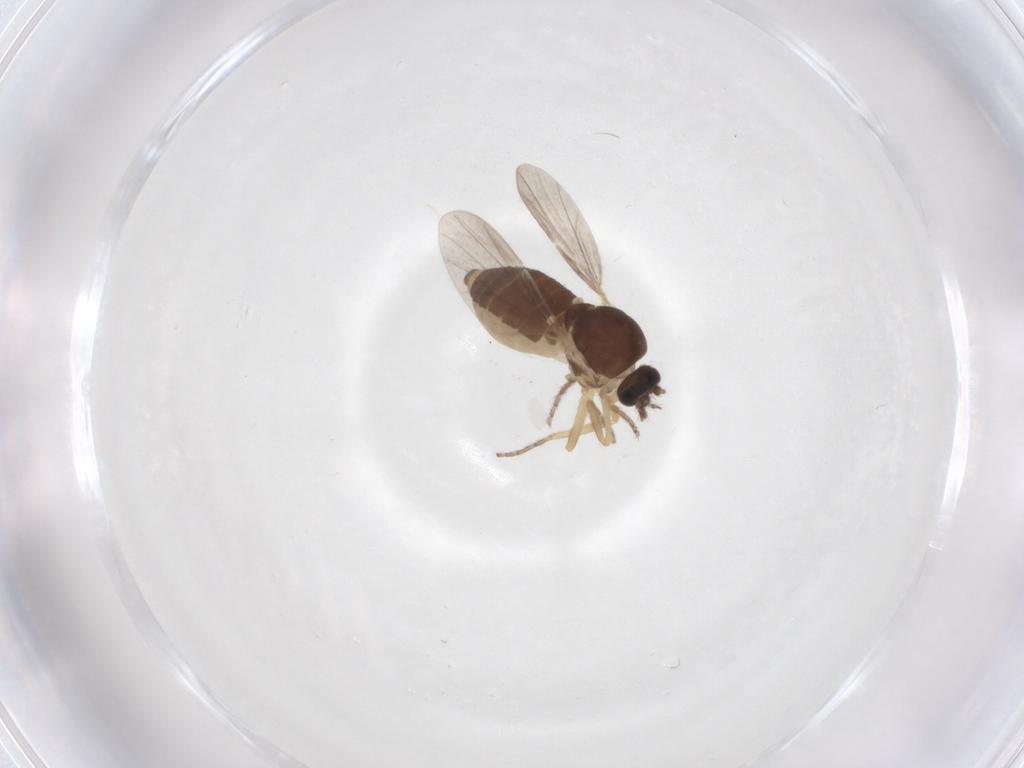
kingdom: Animalia
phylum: Arthropoda
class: Insecta
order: Diptera
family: Ceratopogonidae
